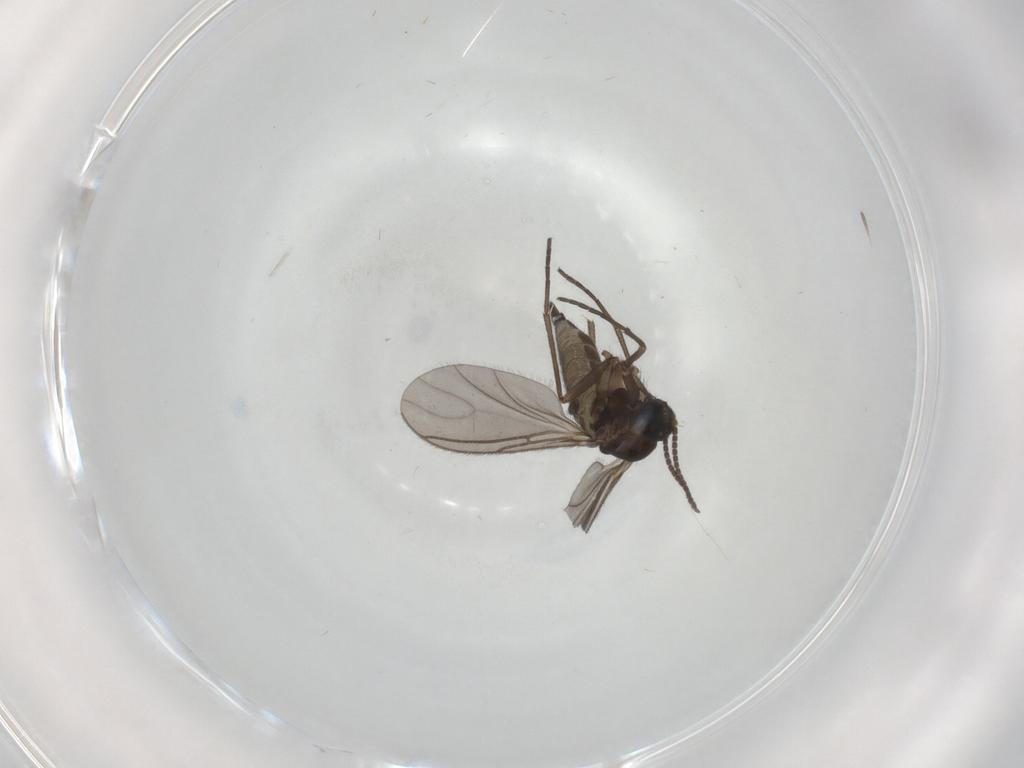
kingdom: Animalia
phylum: Arthropoda
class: Insecta
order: Diptera
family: Sciaridae
